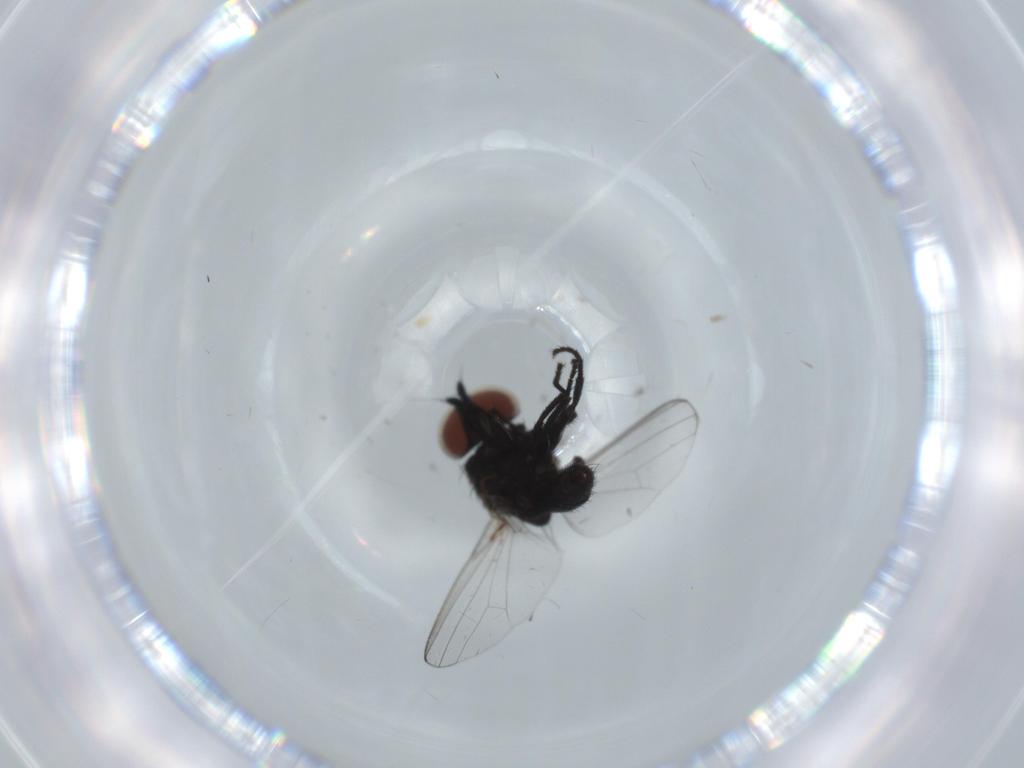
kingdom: Animalia
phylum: Arthropoda
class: Insecta
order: Diptera
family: Milichiidae
